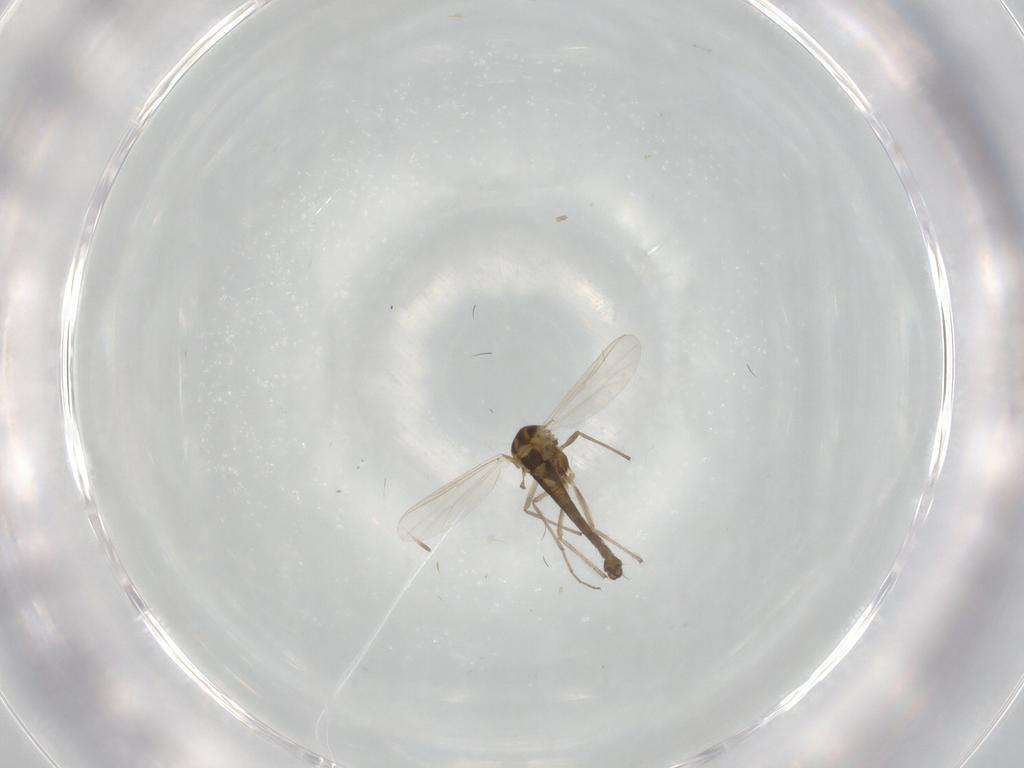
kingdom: Animalia
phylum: Arthropoda
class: Insecta
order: Diptera
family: Chironomidae
